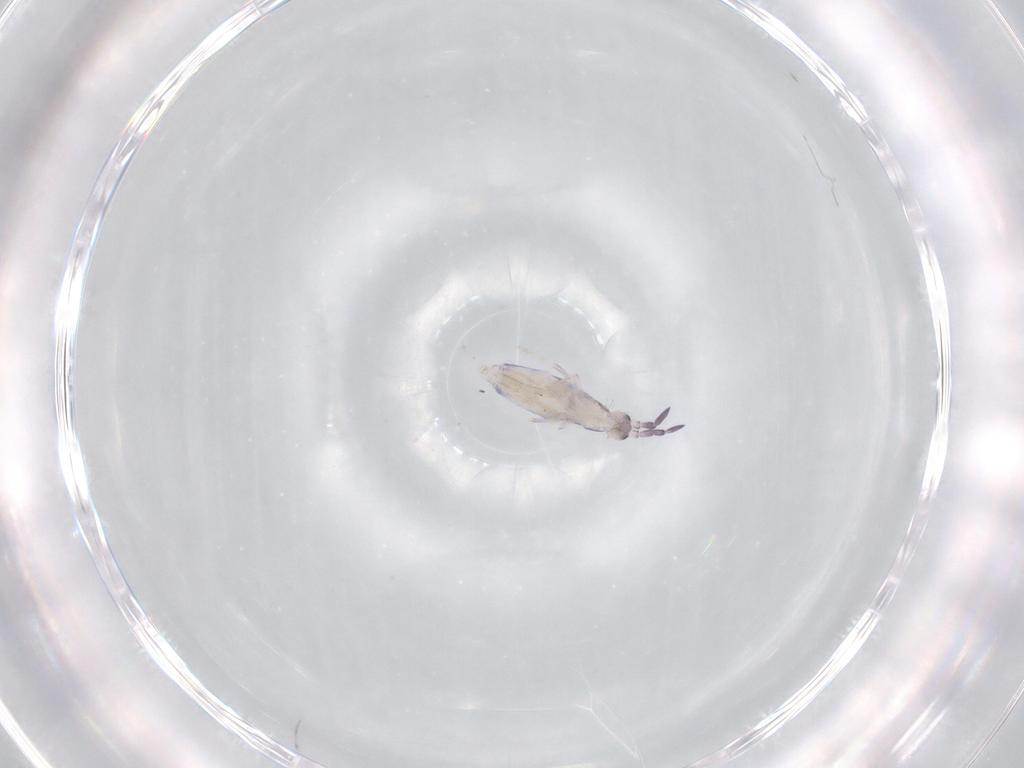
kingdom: Animalia
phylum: Arthropoda
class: Collembola
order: Poduromorpha
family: Hypogastruridae
